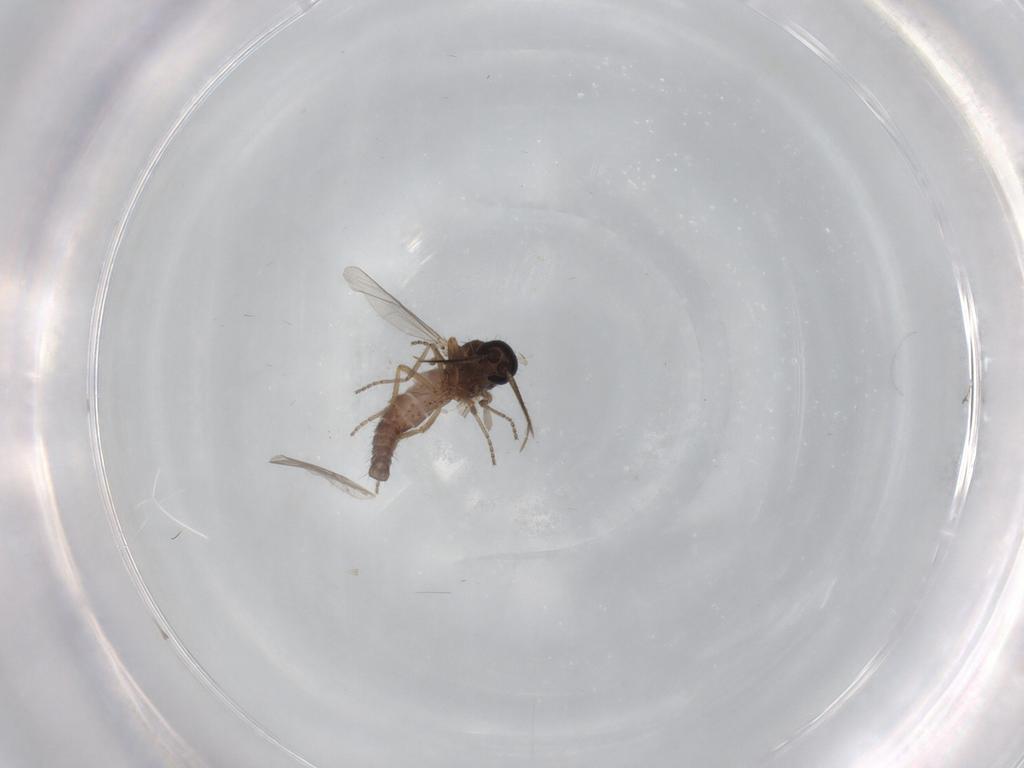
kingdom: Animalia
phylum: Arthropoda
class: Insecta
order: Diptera
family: Ceratopogonidae
